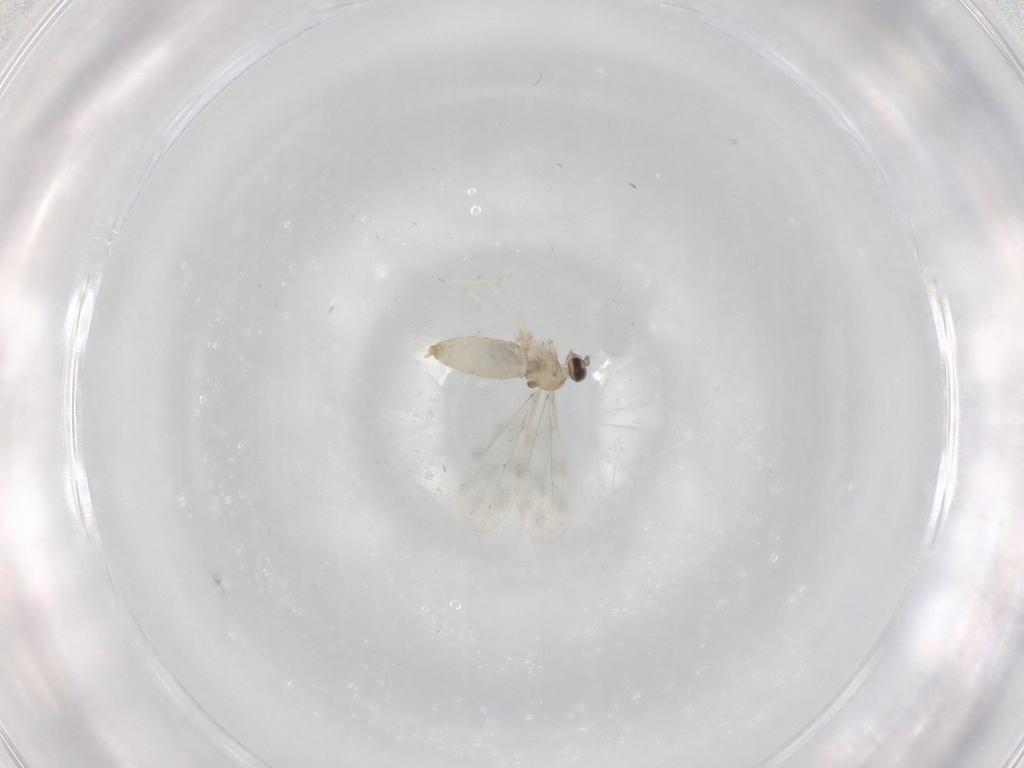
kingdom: Animalia
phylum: Arthropoda
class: Insecta
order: Diptera
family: Cecidomyiidae
